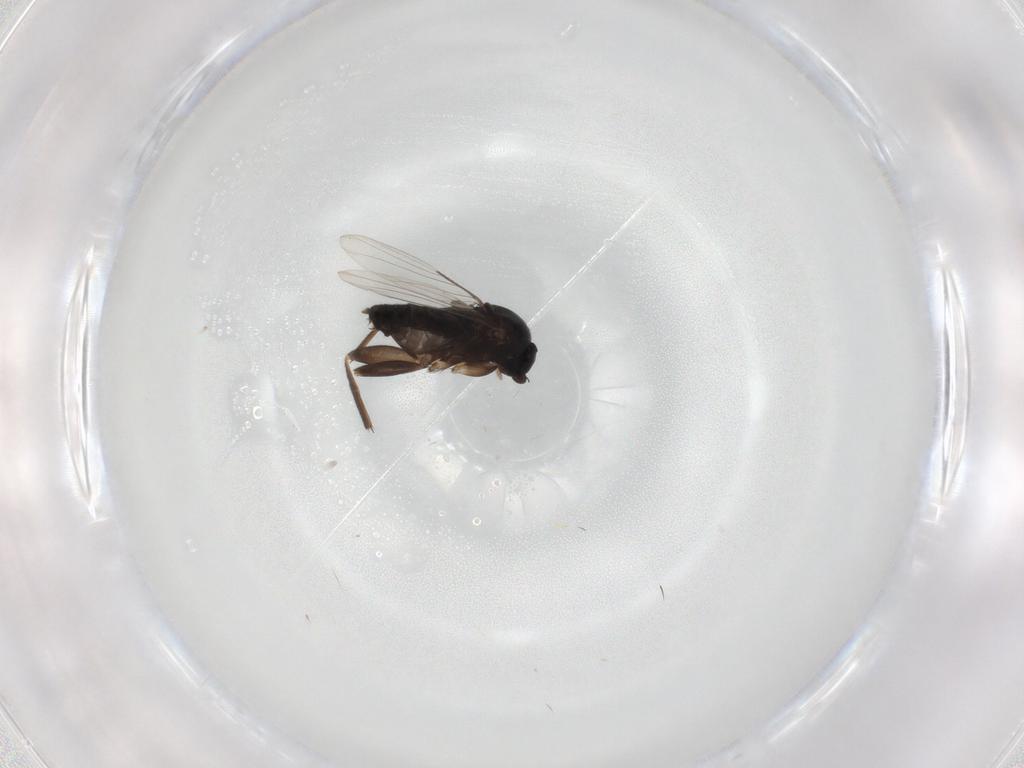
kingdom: Animalia
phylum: Arthropoda
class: Insecta
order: Diptera
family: Phoridae
